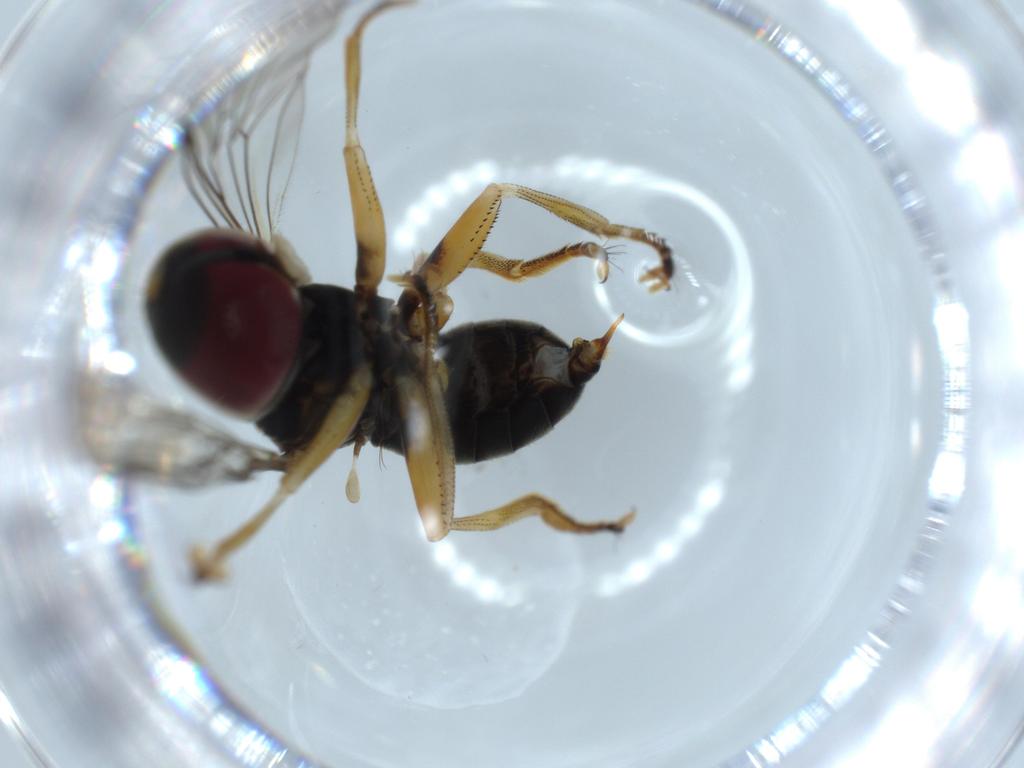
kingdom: Animalia
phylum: Arthropoda
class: Insecta
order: Diptera
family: Phoridae
